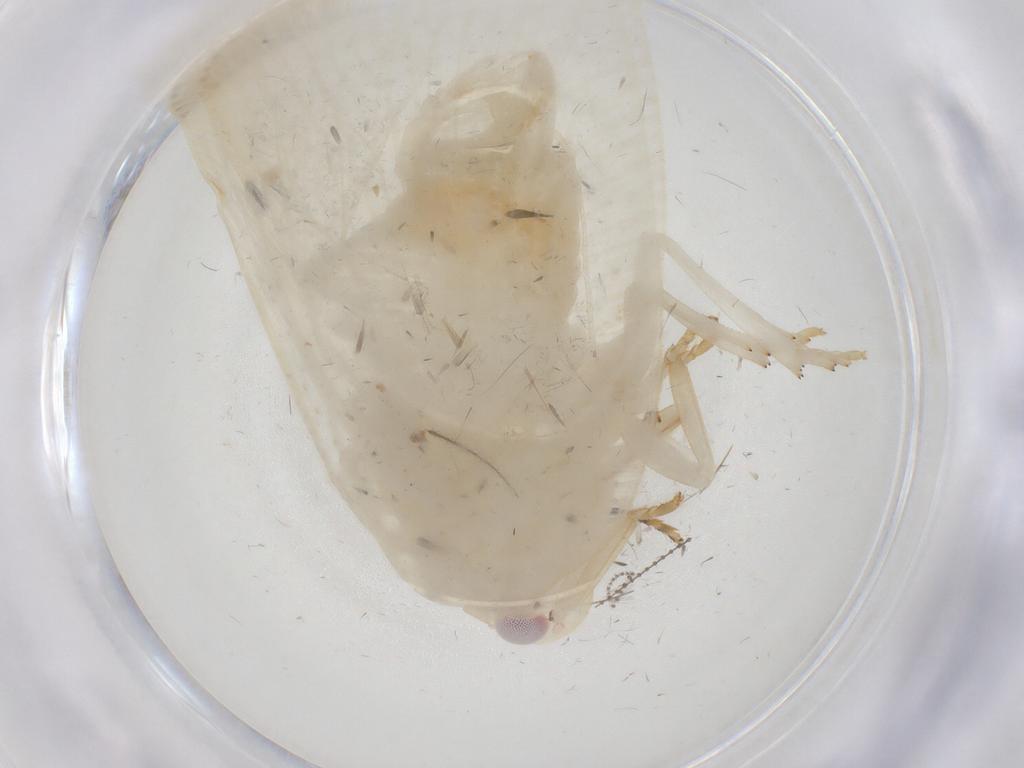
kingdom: Animalia
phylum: Arthropoda
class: Insecta
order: Hemiptera
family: Flatidae
